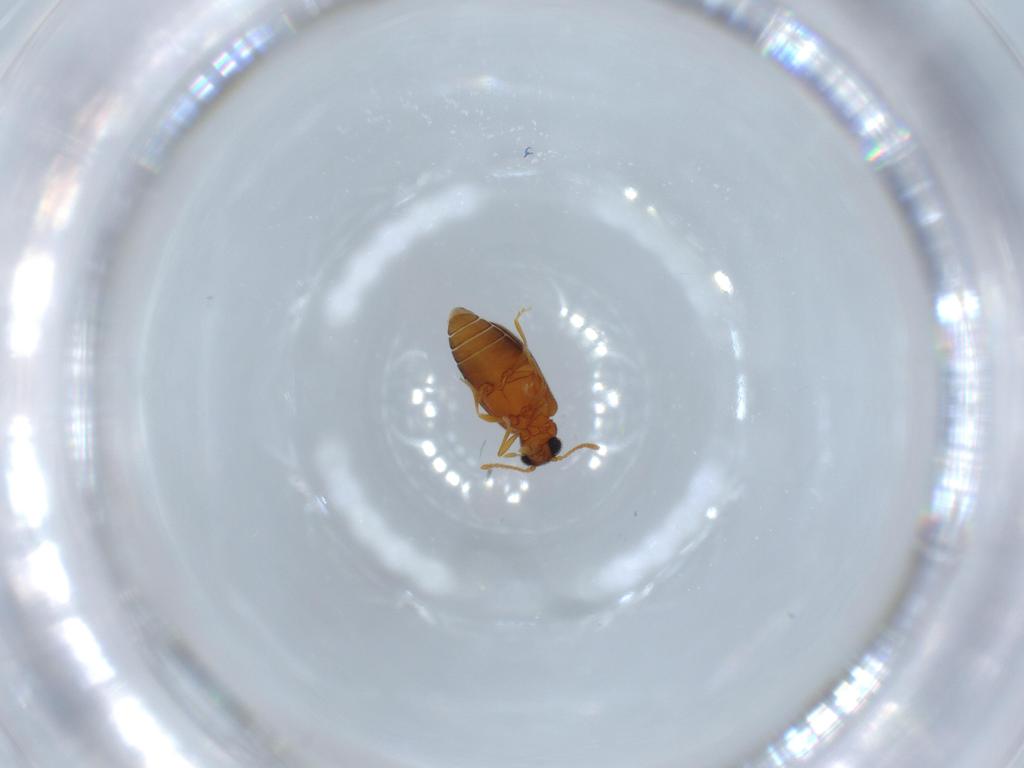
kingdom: Animalia
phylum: Arthropoda
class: Insecta
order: Coleoptera
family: Aderidae
